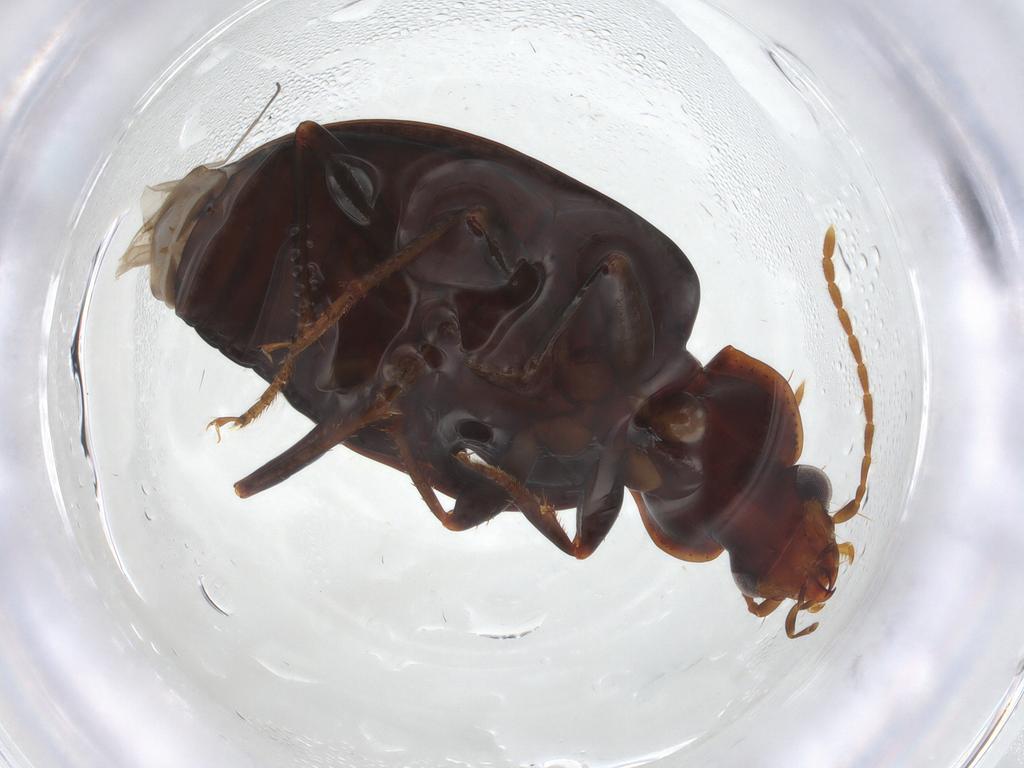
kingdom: Animalia
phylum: Arthropoda
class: Insecta
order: Coleoptera
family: Carabidae
